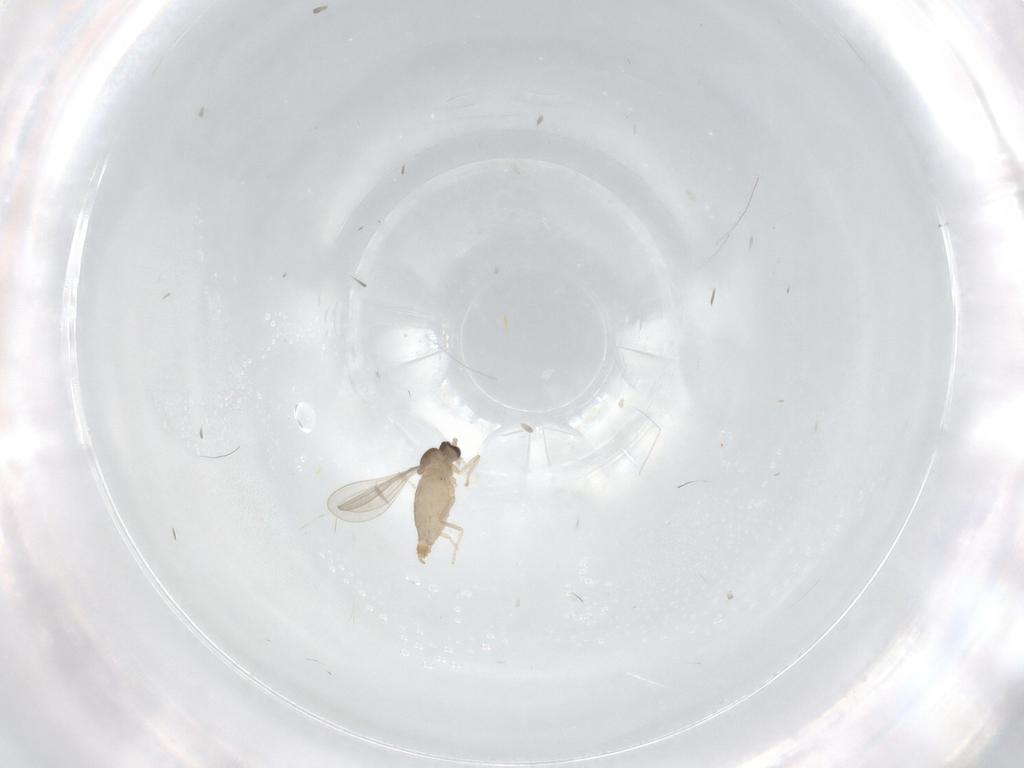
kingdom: Animalia
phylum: Arthropoda
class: Insecta
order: Diptera
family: Cecidomyiidae
